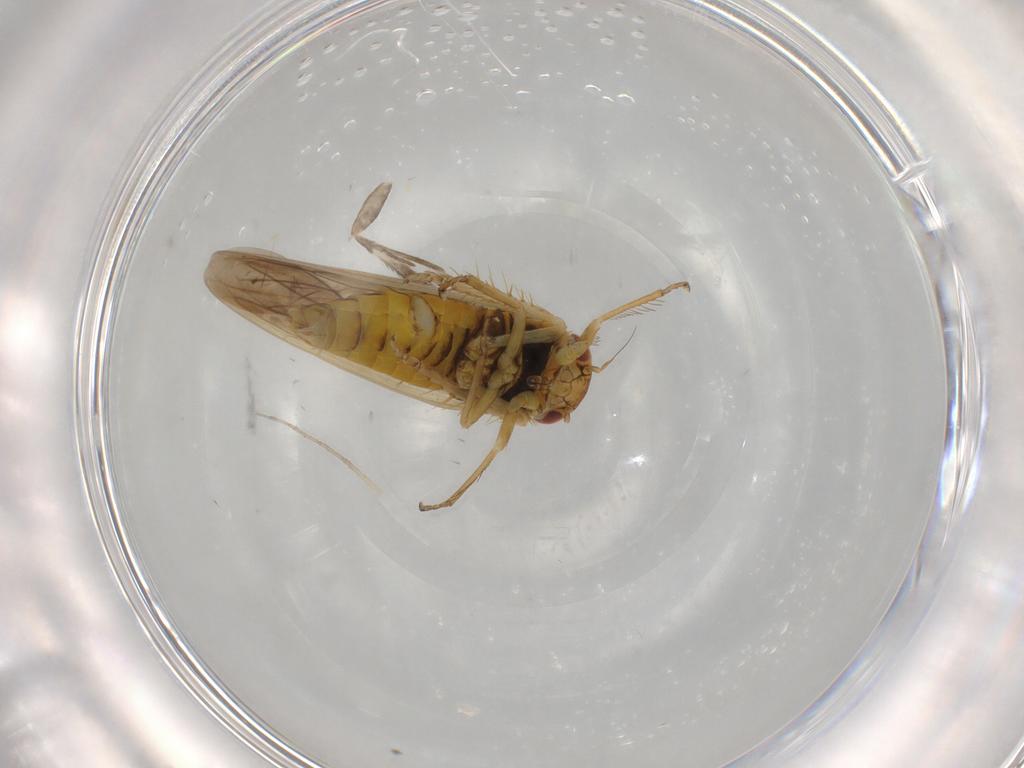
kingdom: Animalia
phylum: Arthropoda
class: Insecta
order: Hemiptera
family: Cicadellidae
